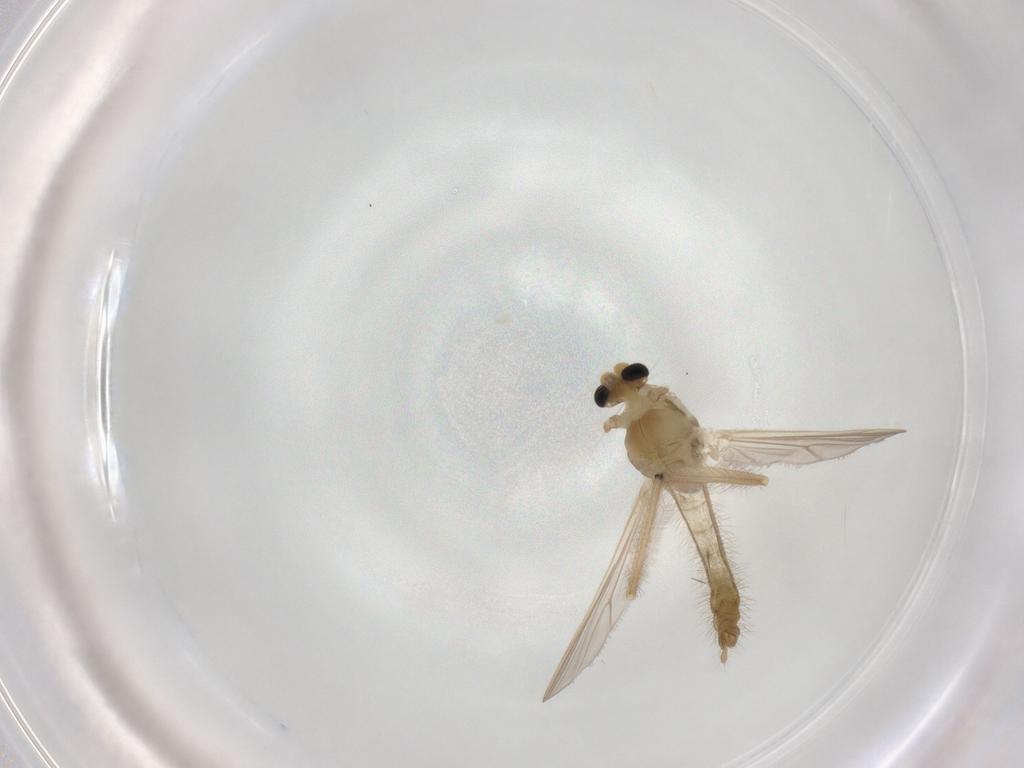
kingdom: Animalia
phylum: Arthropoda
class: Insecta
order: Diptera
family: Chironomidae
